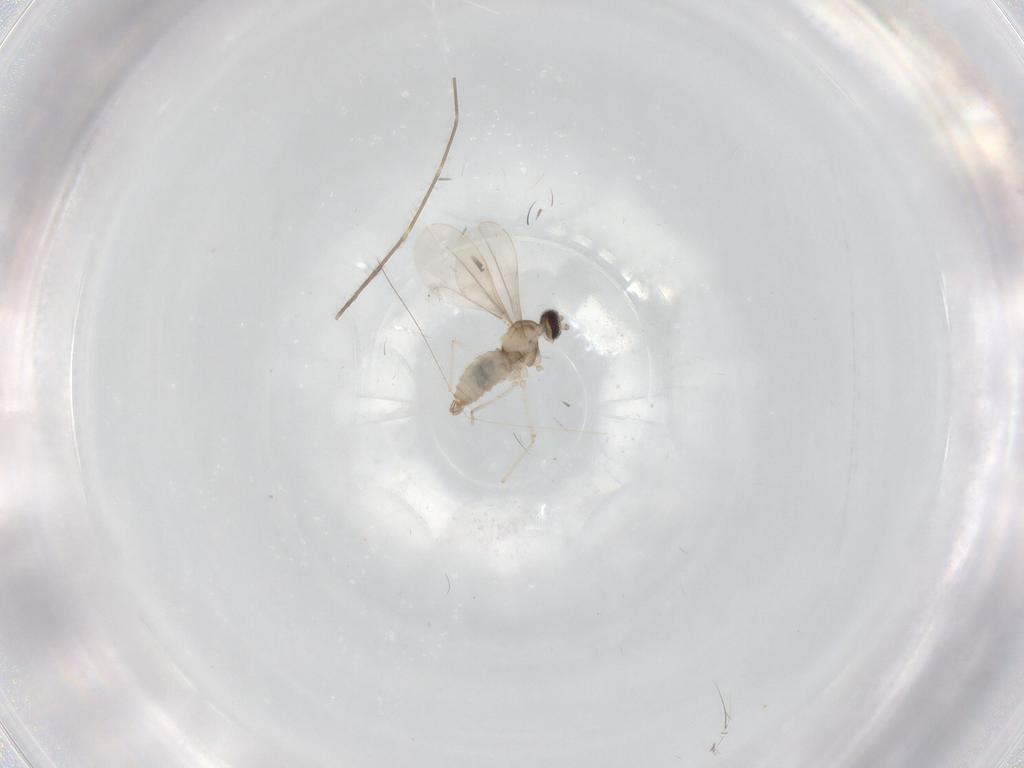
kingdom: Animalia
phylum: Arthropoda
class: Insecta
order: Diptera
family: Cecidomyiidae
